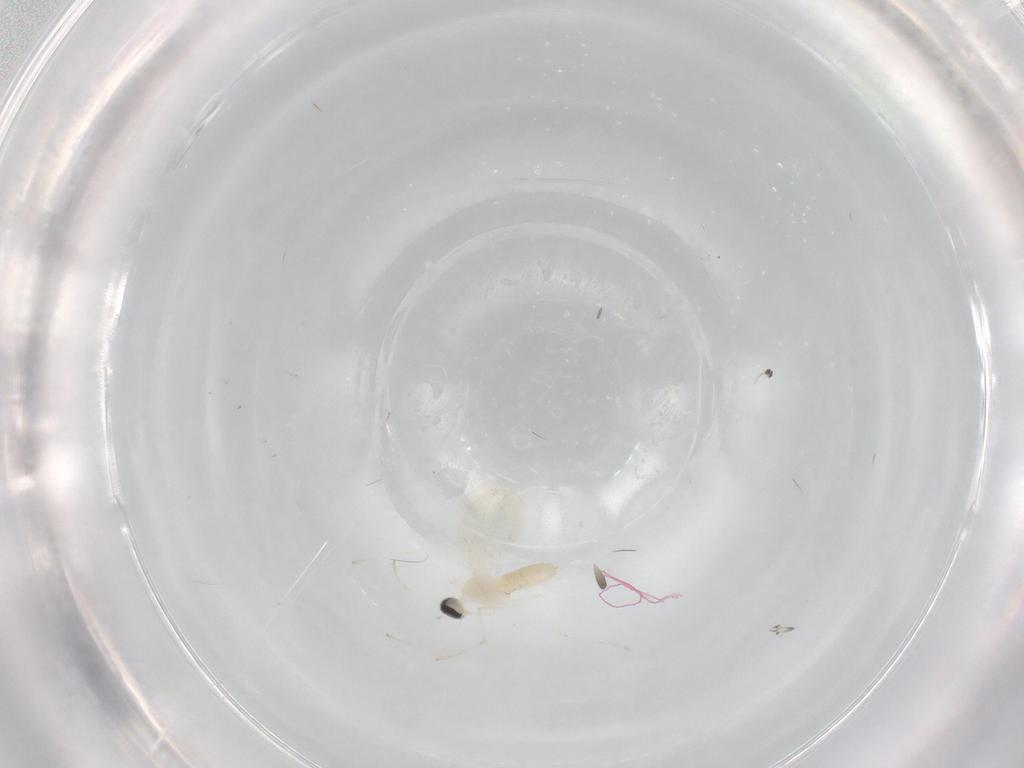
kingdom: Animalia
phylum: Arthropoda
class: Insecta
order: Diptera
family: Cecidomyiidae
